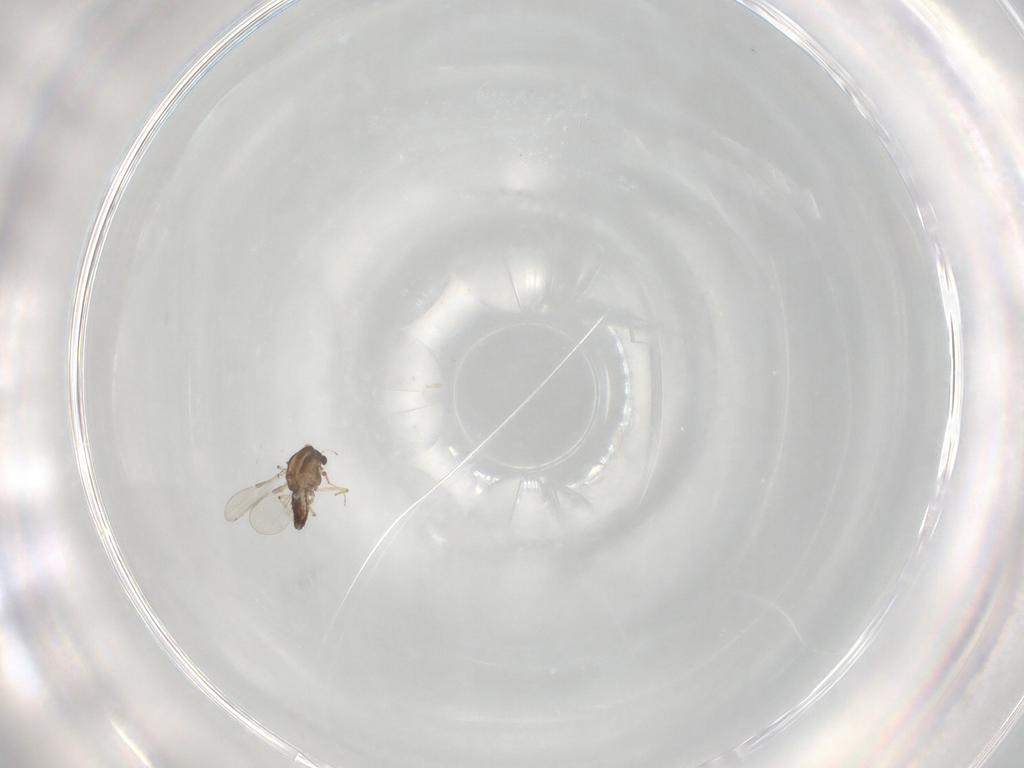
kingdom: Animalia
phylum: Arthropoda
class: Insecta
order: Diptera
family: Chironomidae
